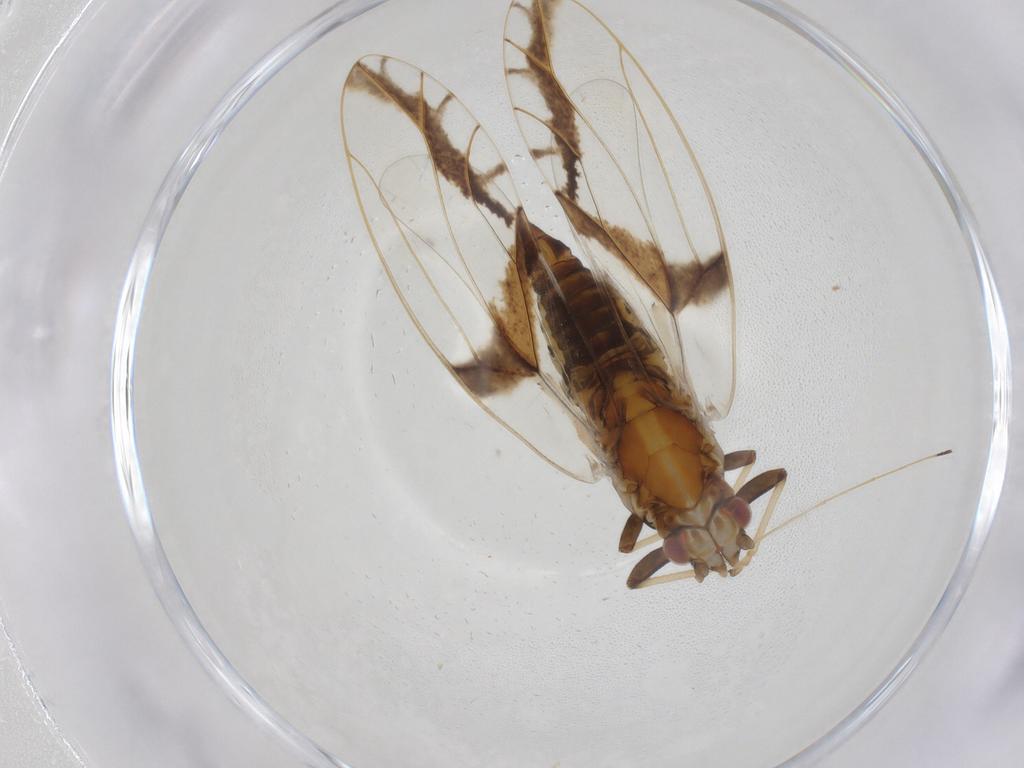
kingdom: Animalia
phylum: Arthropoda
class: Insecta
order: Hemiptera
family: Triozidae
